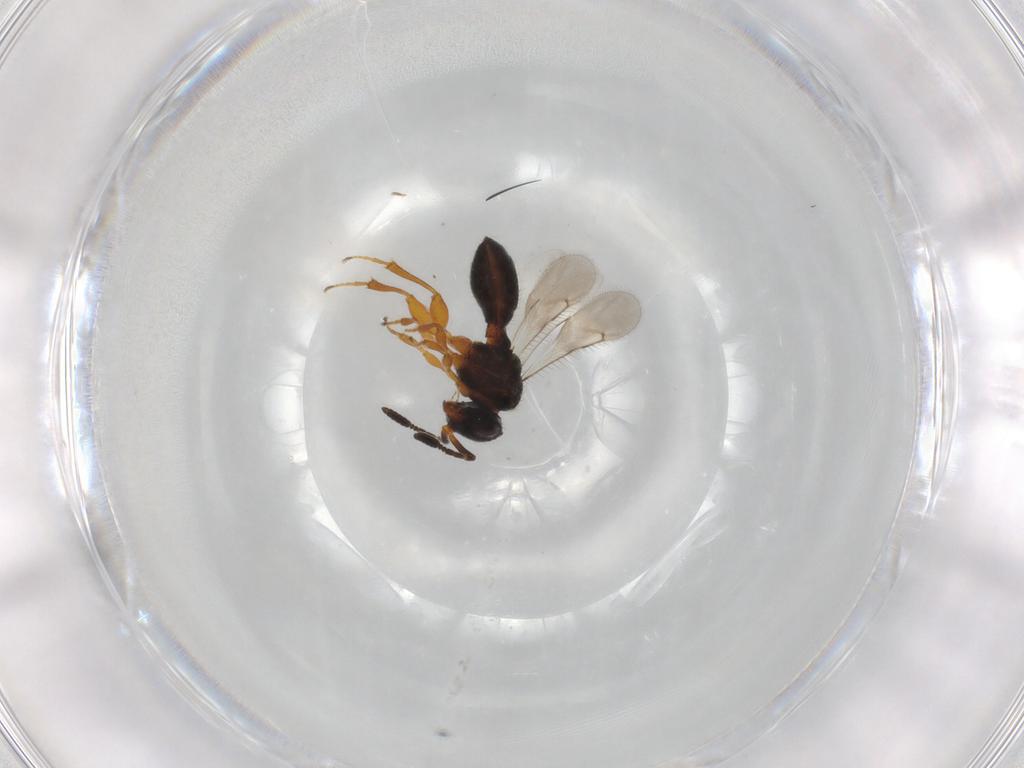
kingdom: Animalia
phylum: Arthropoda
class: Insecta
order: Hymenoptera
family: Scelionidae
